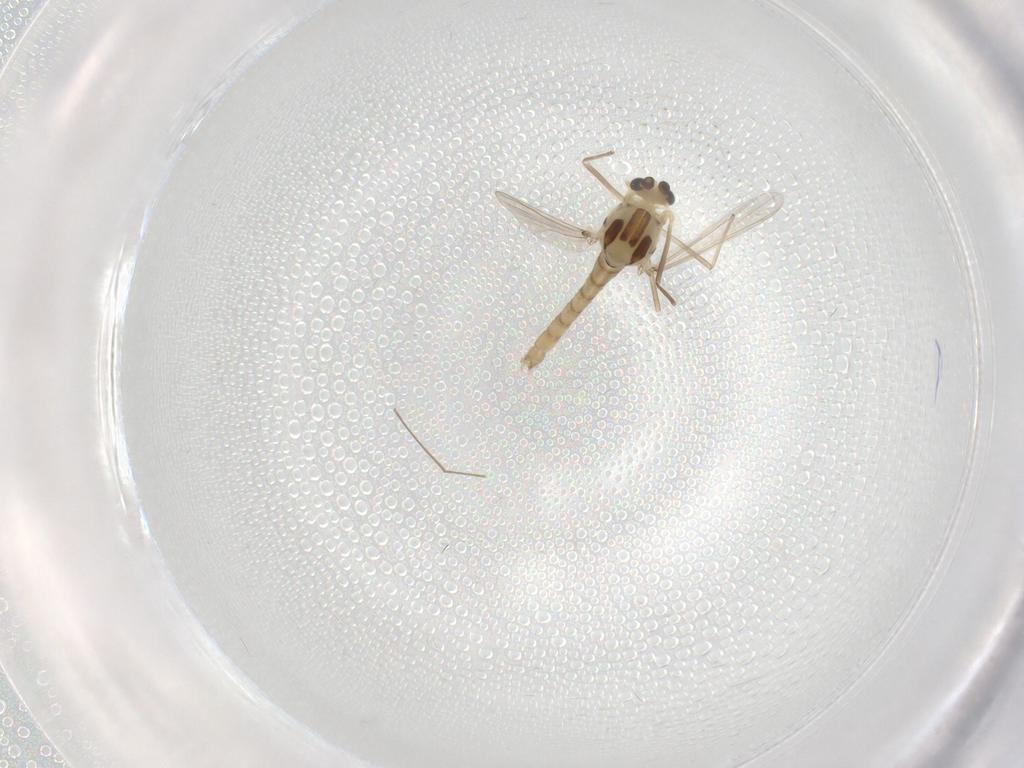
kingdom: Animalia
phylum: Arthropoda
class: Insecta
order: Diptera
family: Chironomidae
